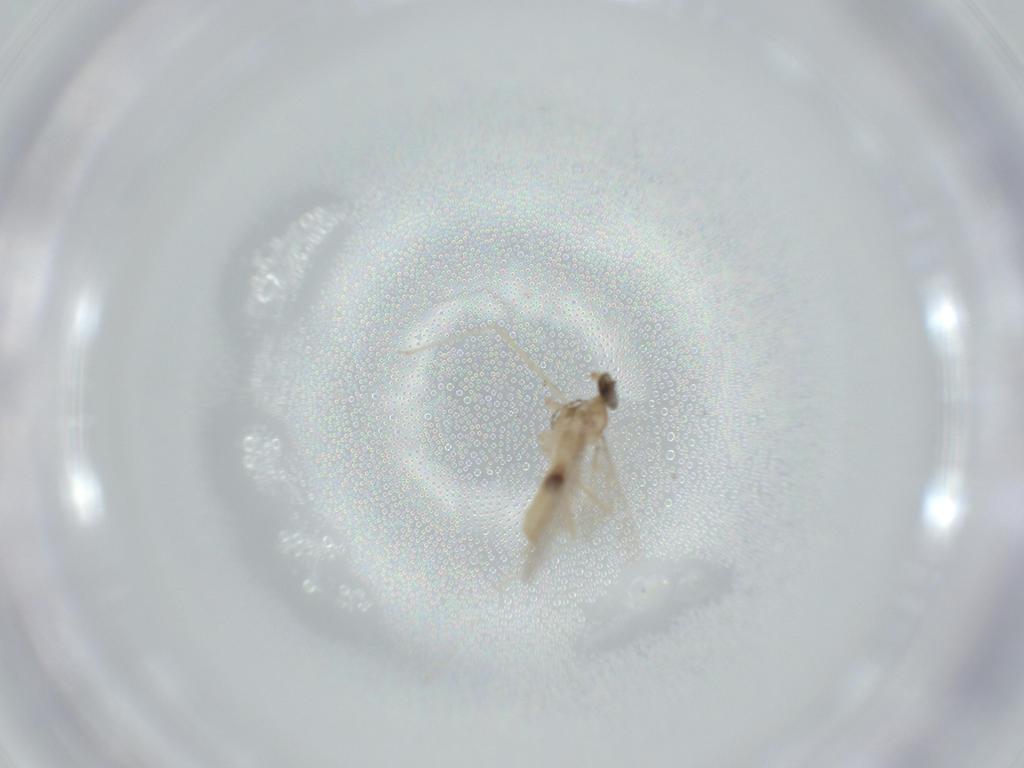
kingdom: Animalia
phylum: Arthropoda
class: Insecta
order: Diptera
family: Cecidomyiidae
